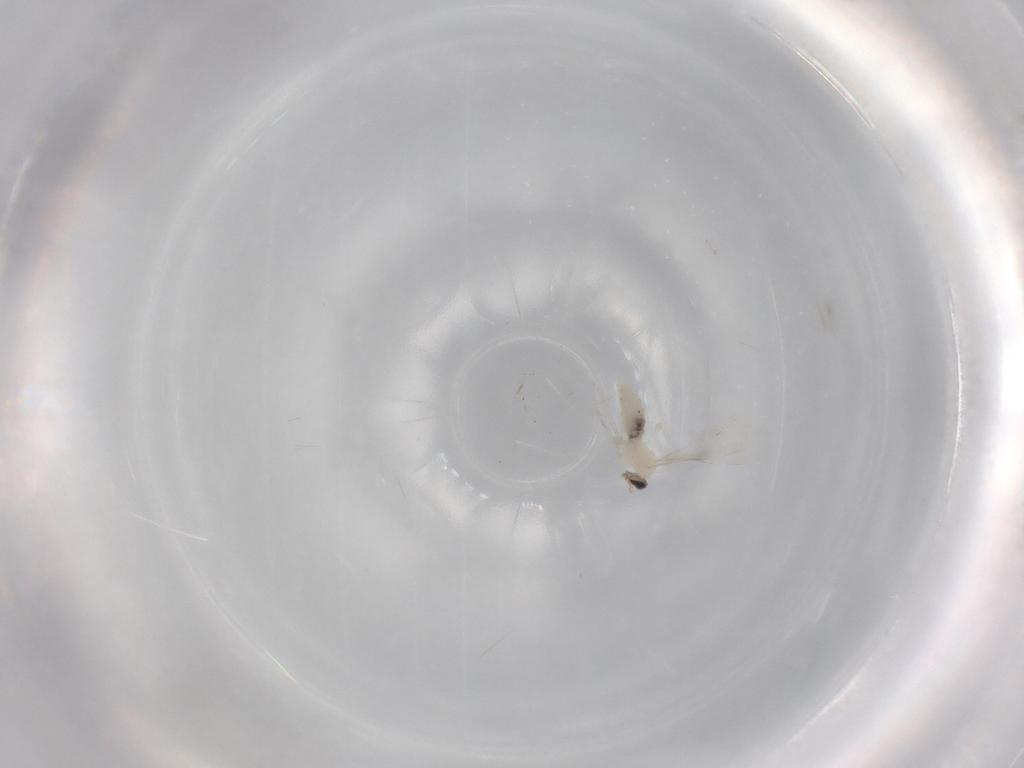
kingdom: Animalia
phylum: Arthropoda
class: Insecta
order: Diptera
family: Cecidomyiidae
